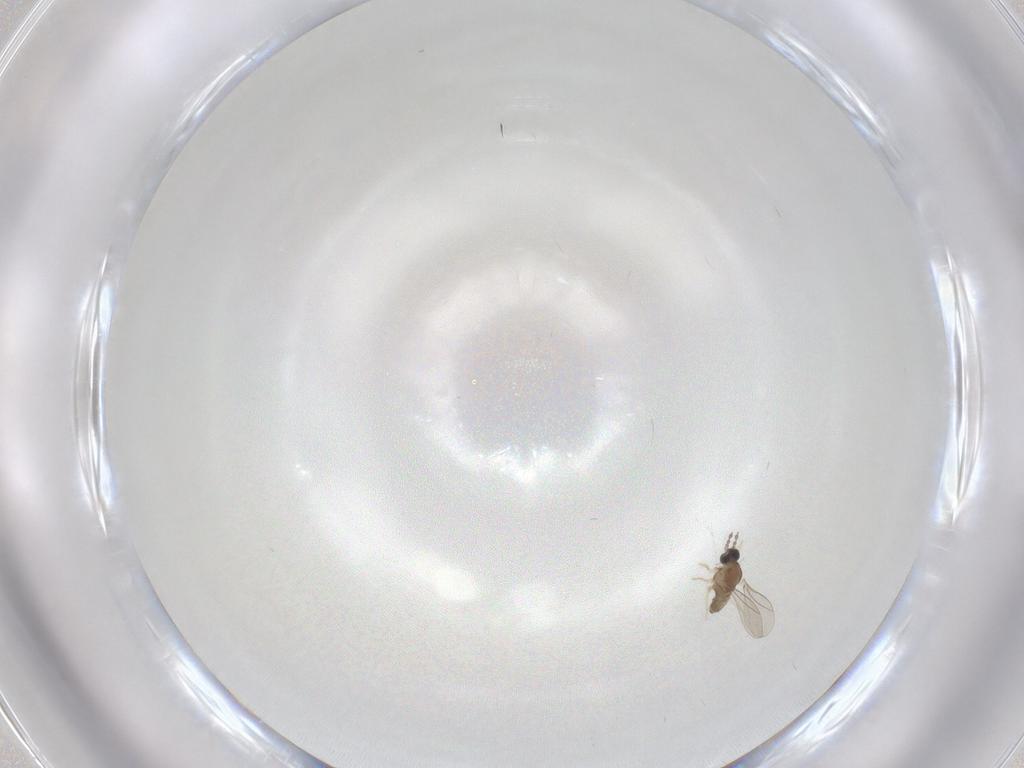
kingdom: Animalia
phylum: Arthropoda
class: Insecta
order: Diptera
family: Cecidomyiidae
